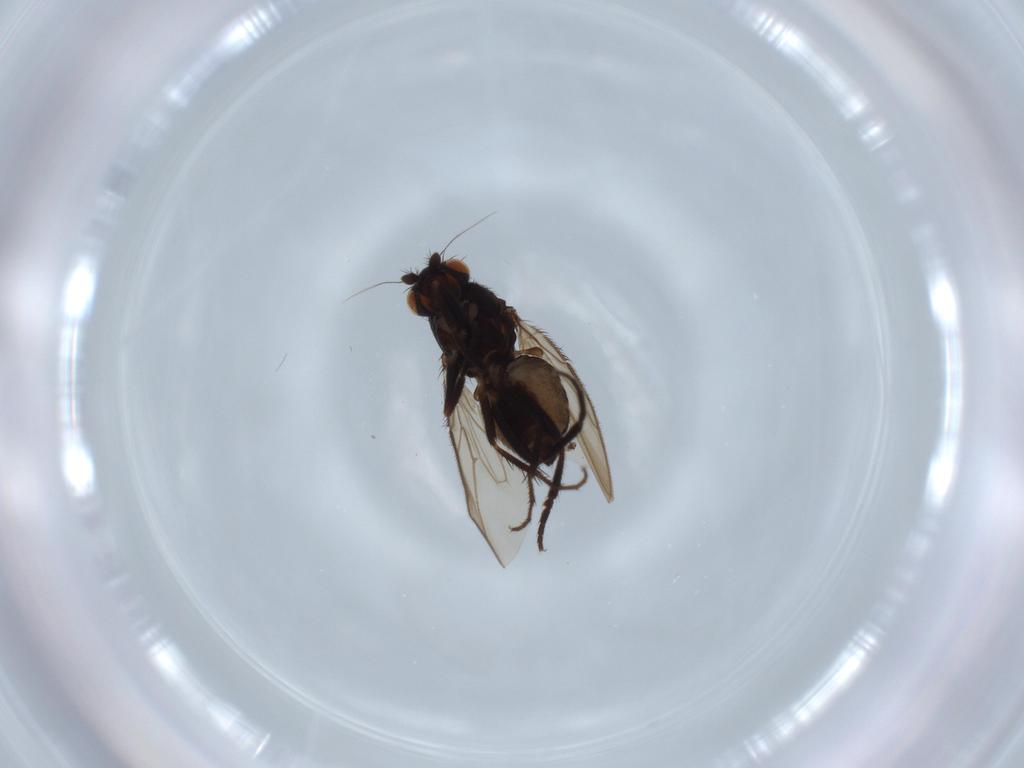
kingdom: Animalia
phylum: Arthropoda
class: Insecta
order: Diptera
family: Sphaeroceridae
